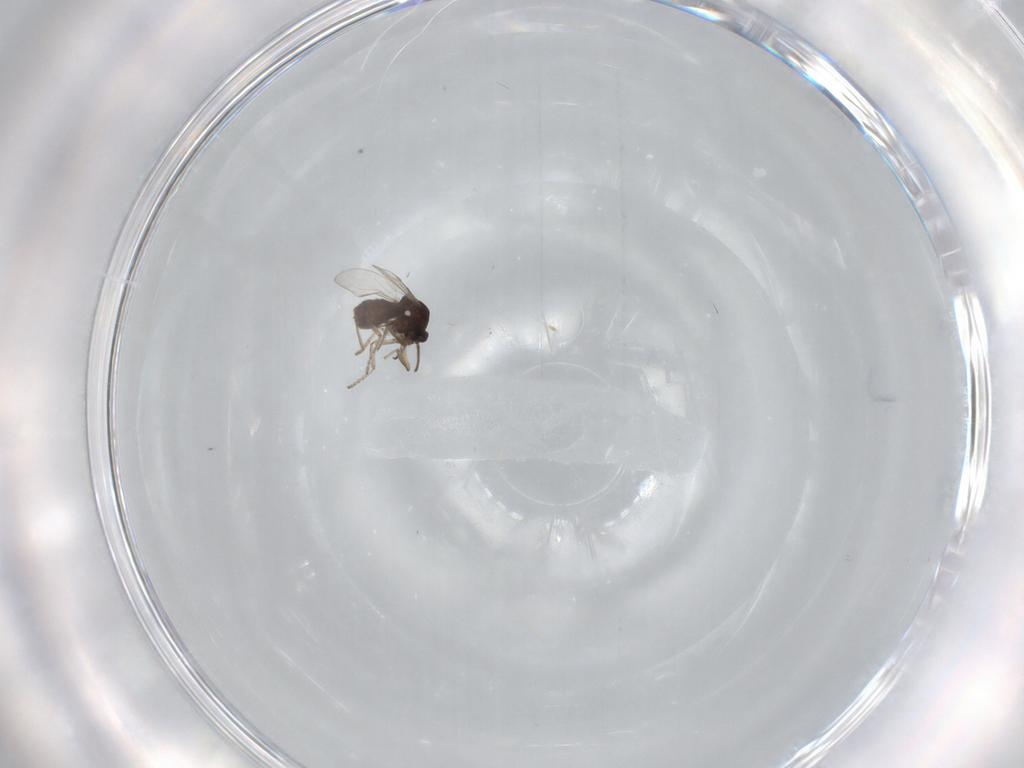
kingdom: Animalia
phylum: Arthropoda
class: Insecta
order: Diptera
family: Ceratopogonidae
